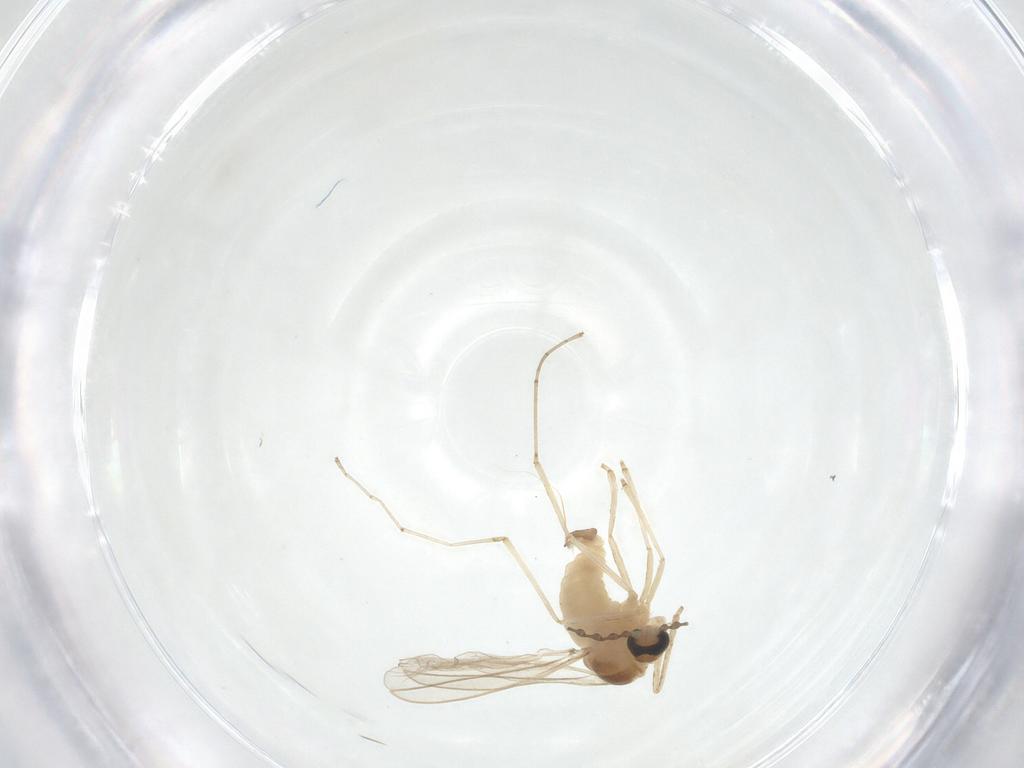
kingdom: Animalia
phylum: Arthropoda
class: Insecta
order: Diptera
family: Cecidomyiidae
